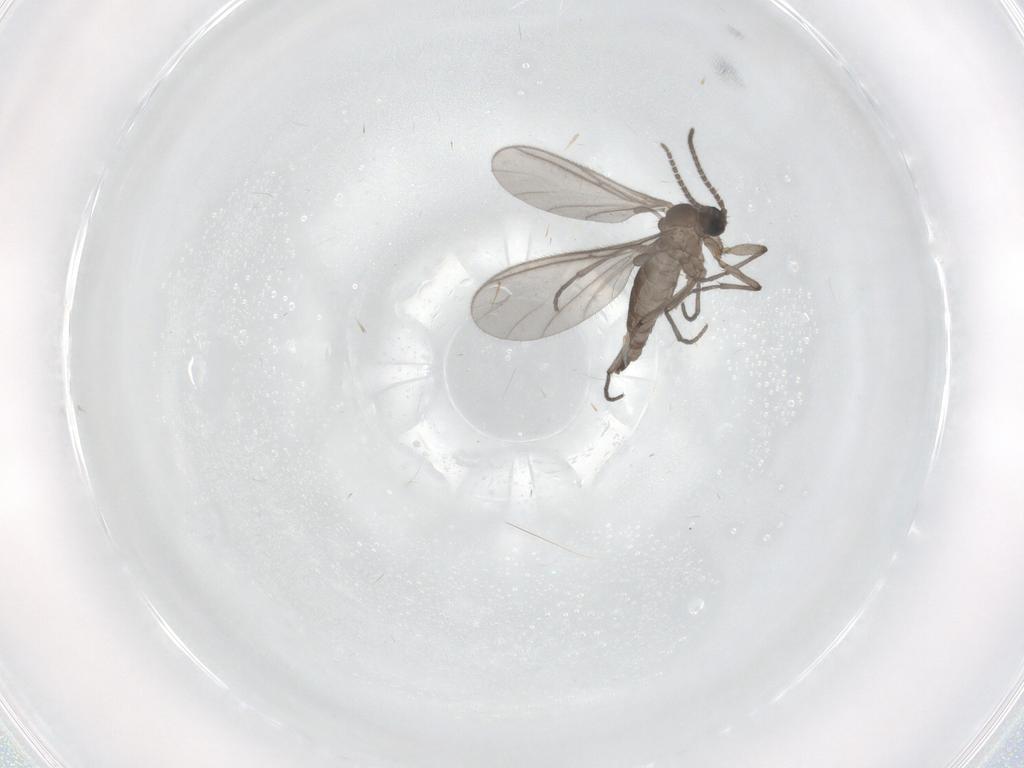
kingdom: Animalia
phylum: Arthropoda
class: Insecta
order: Diptera
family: Sciaridae
